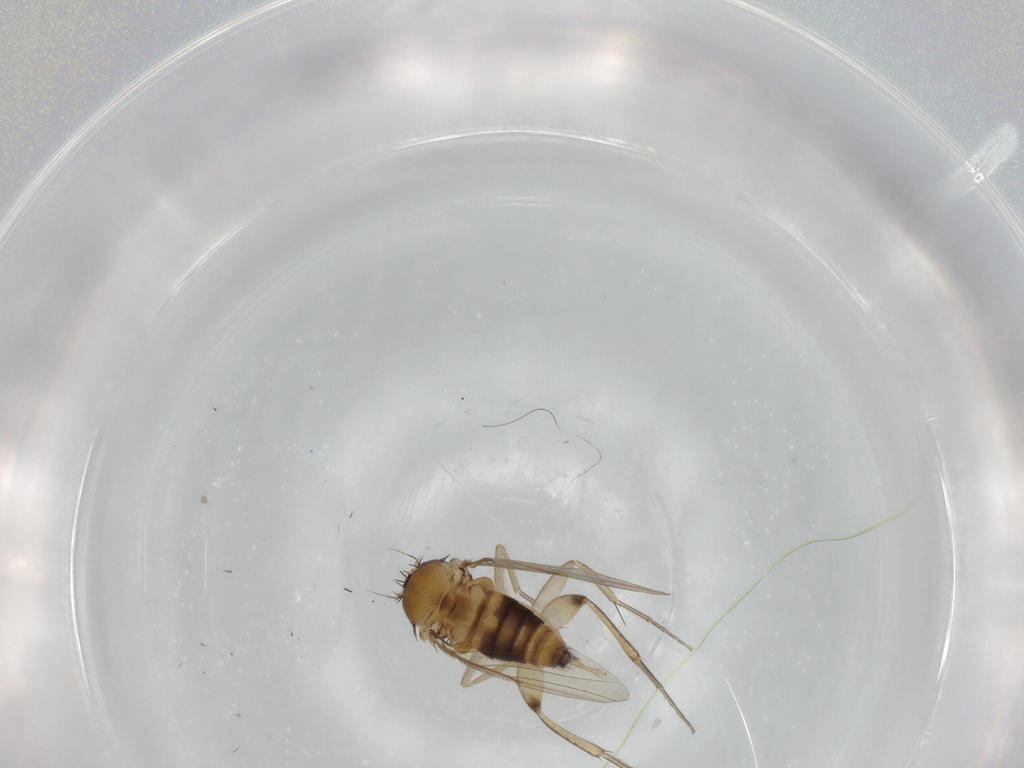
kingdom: Animalia
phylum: Arthropoda
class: Insecta
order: Diptera
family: Phoridae
